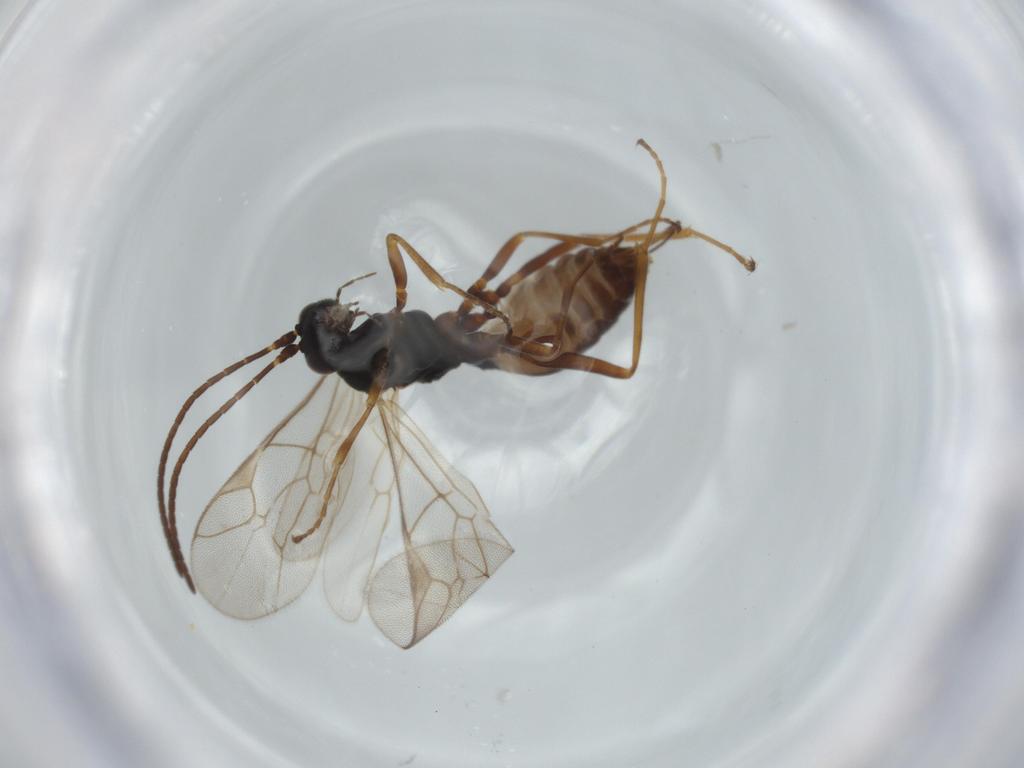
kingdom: Animalia
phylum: Arthropoda
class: Insecta
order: Hymenoptera
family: Ichneumonidae
